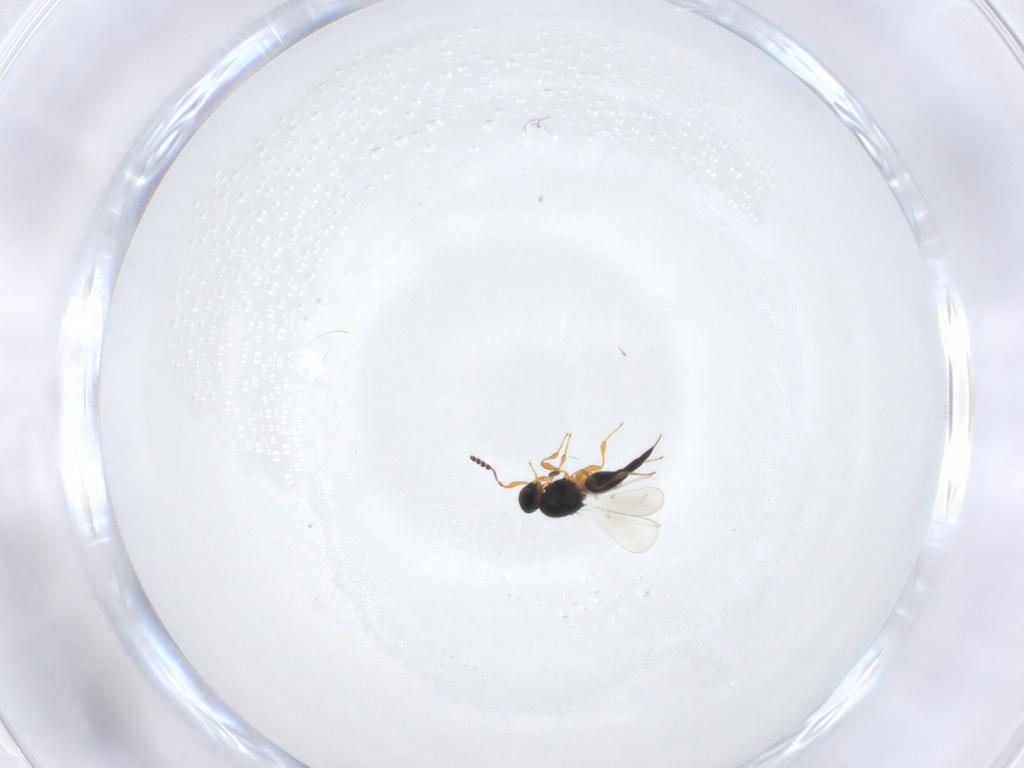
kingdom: Animalia
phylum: Arthropoda
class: Insecta
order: Hymenoptera
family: Platygastridae
